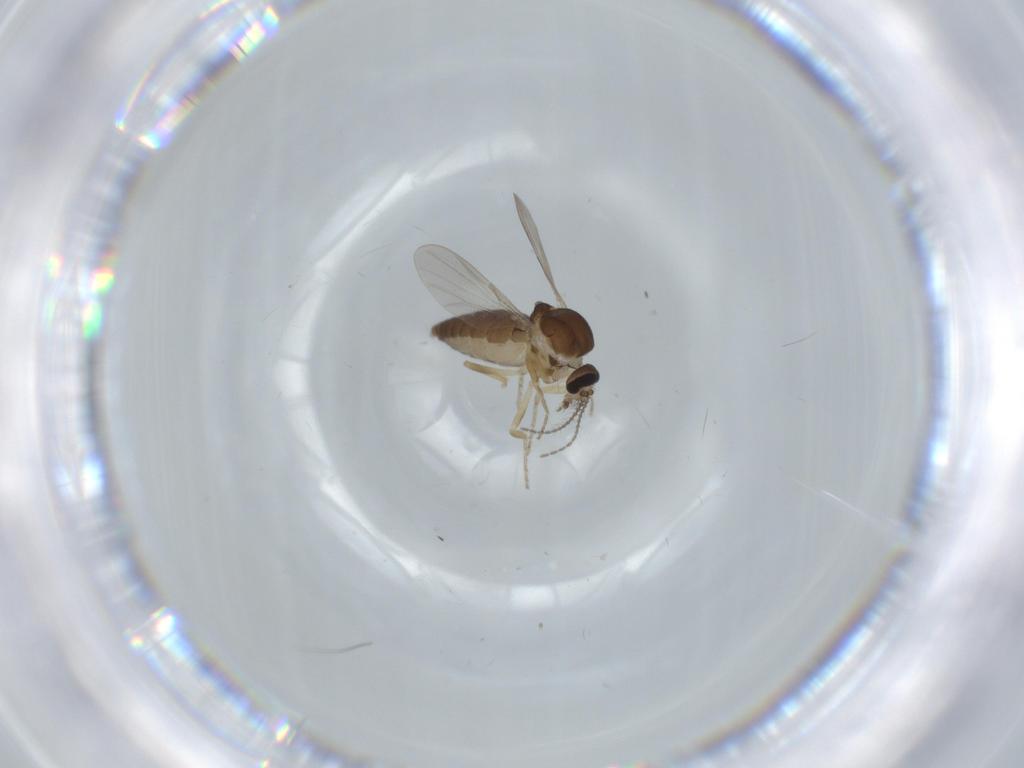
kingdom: Animalia
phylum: Arthropoda
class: Insecta
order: Diptera
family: Ceratopogonidae
